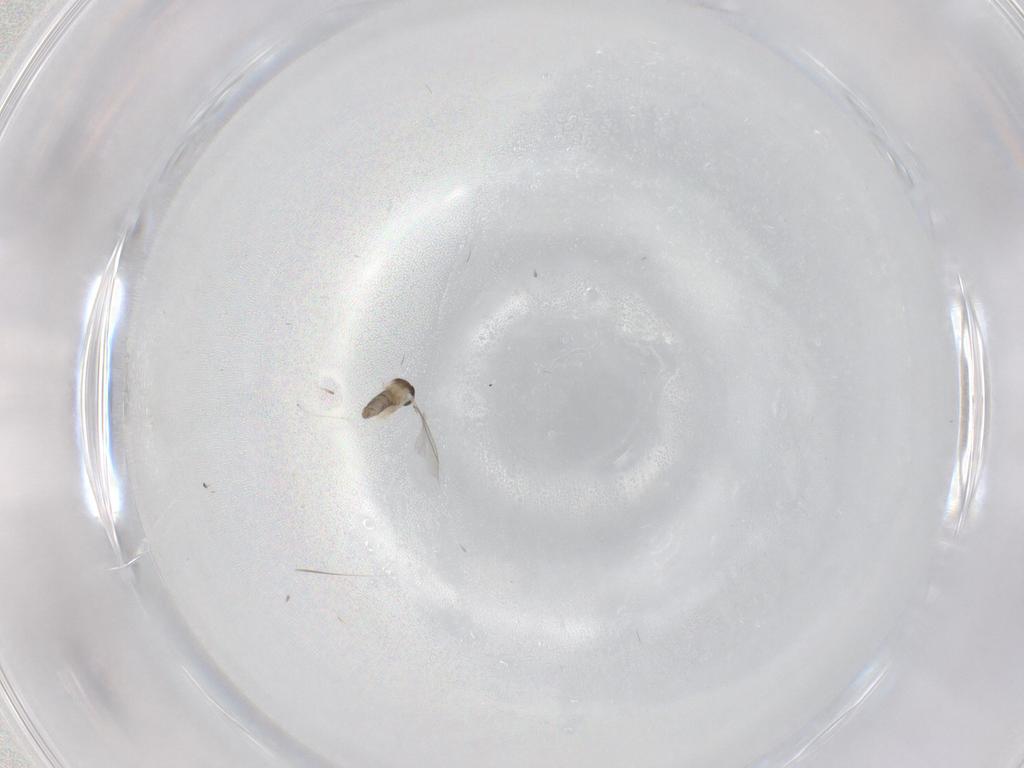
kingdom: Animalia
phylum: Arthropoda
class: Insecta
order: Diptera
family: Cecidomyiidae
